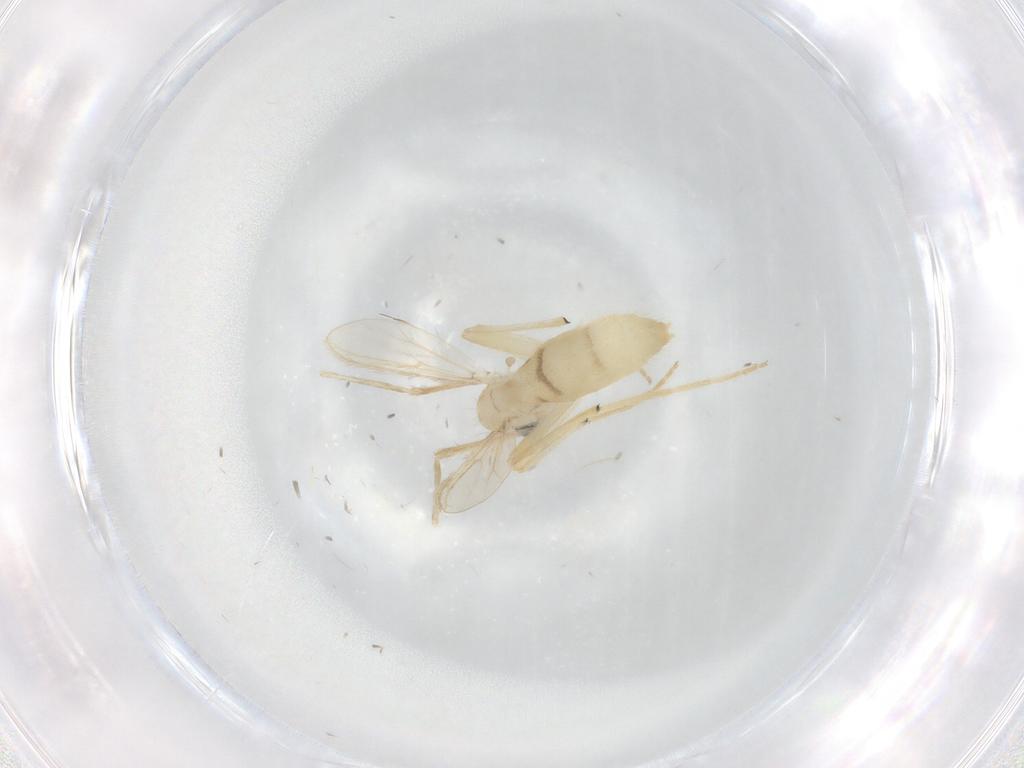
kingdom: Animalia
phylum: Arthropoda
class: Insecta
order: Diptera
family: Chironomidae
